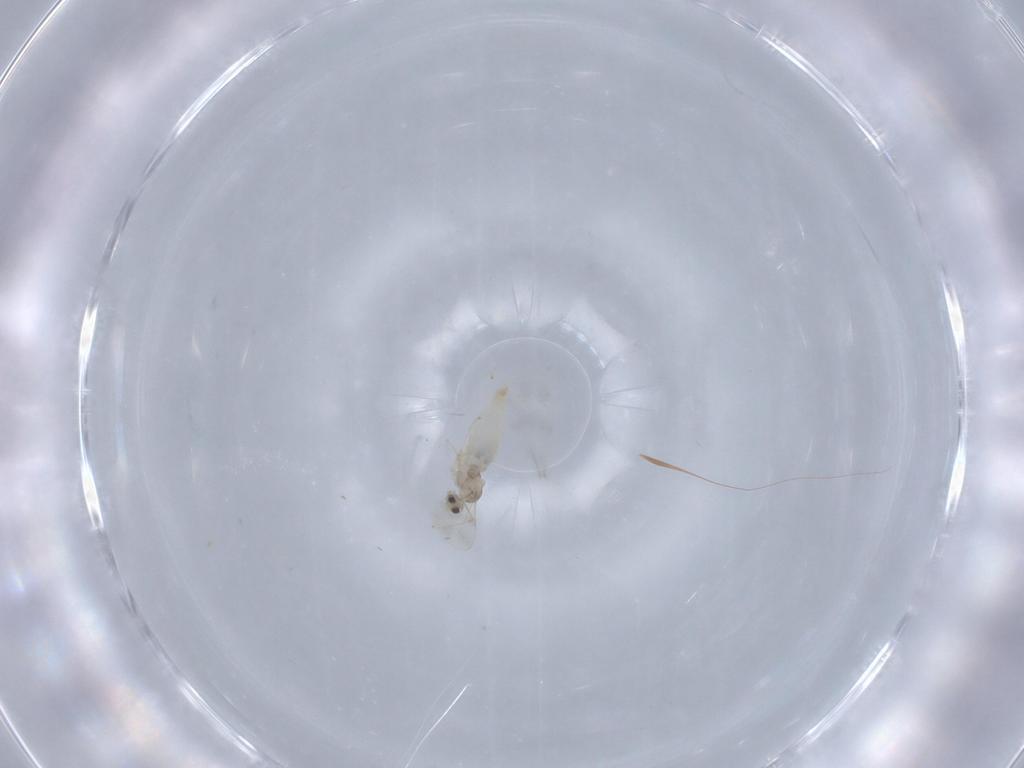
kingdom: Animalia
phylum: Arthropoda
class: Insecta
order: Diptera
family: Cecidomyiidae
